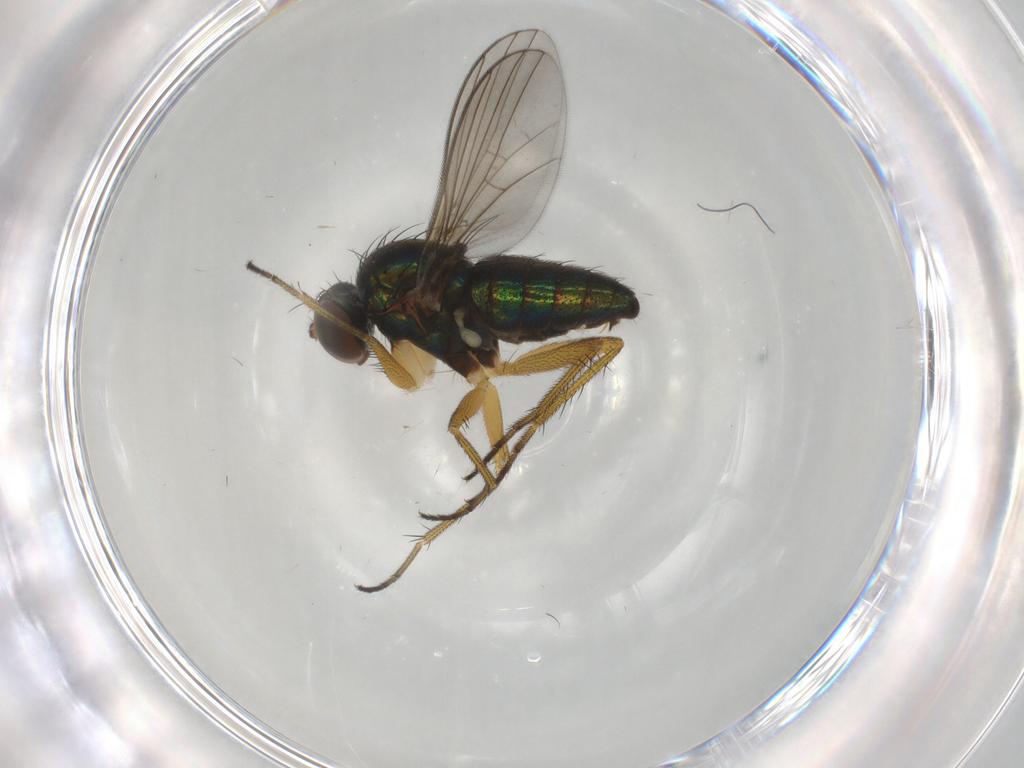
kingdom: Animalia
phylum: Arthropoda
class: Insecta
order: Diptera
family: Dolichopodidae
